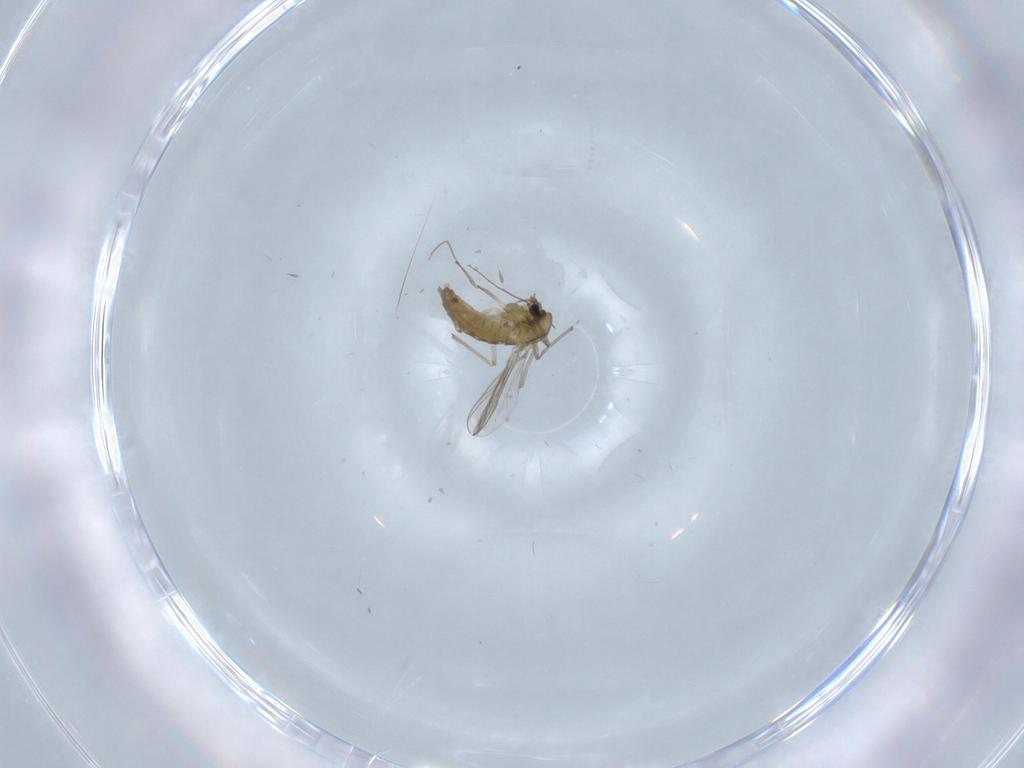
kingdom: Animalia
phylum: Arthropoda
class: Insecta
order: Diptera
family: Chironomidae
